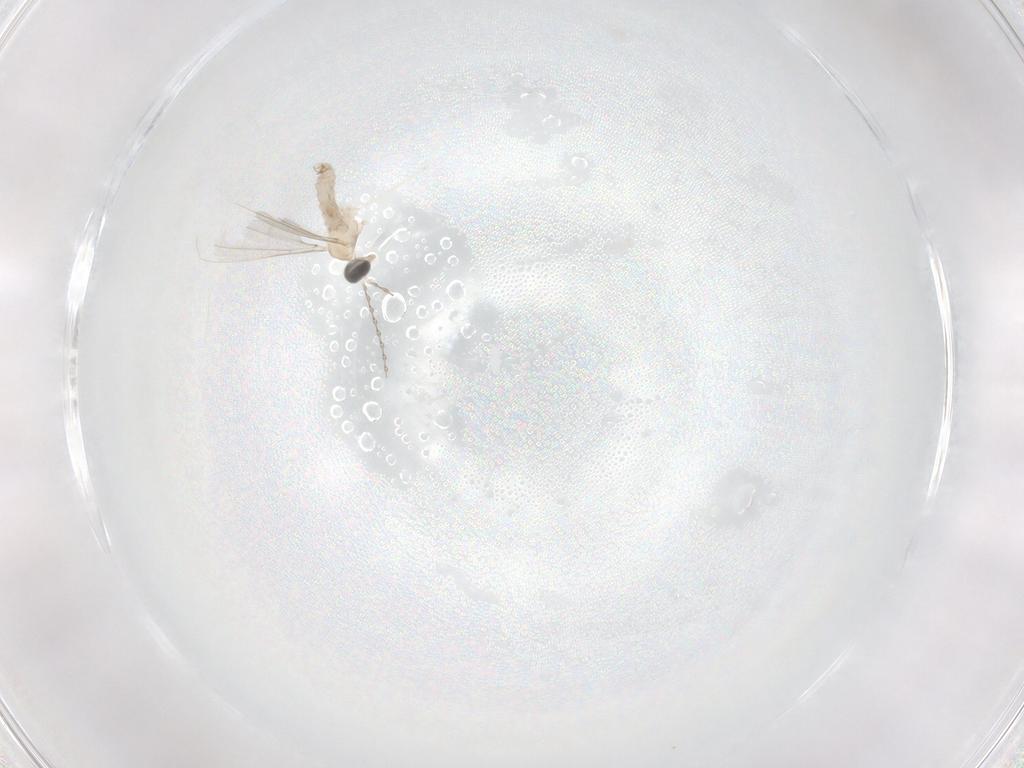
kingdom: Animalia
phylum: Arthropoda
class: Insecta
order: Diptera
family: Cecidomyiidae
